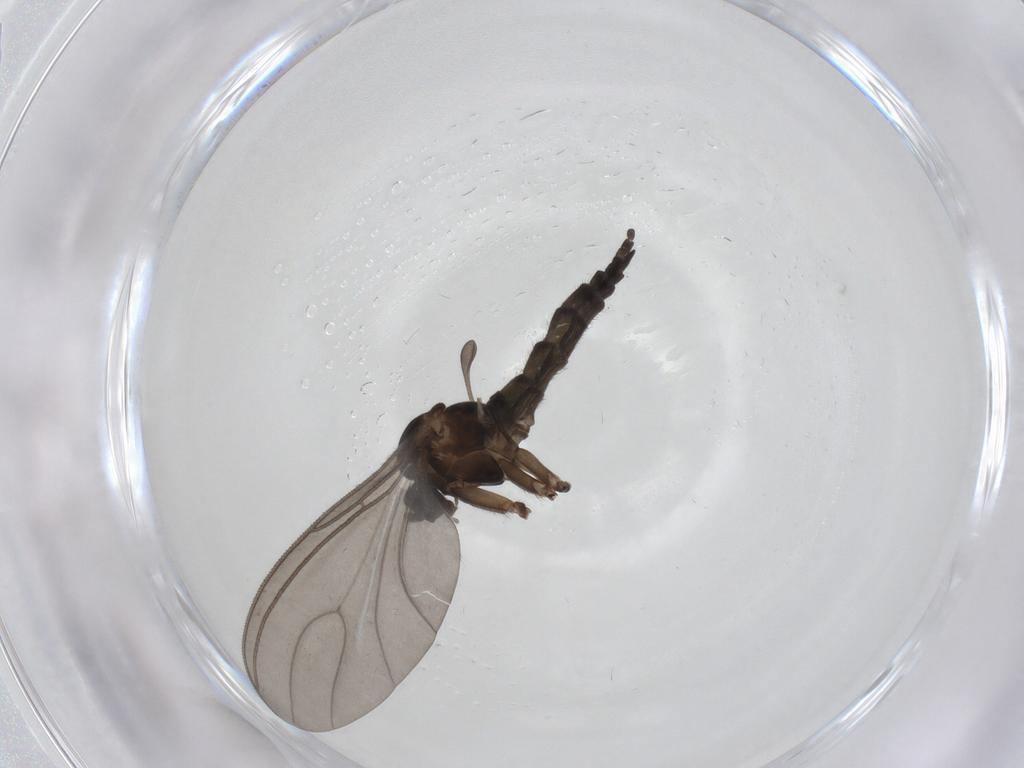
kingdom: Animalia
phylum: Arthropoda
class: Insecta
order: Diptera
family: Sciaridae
